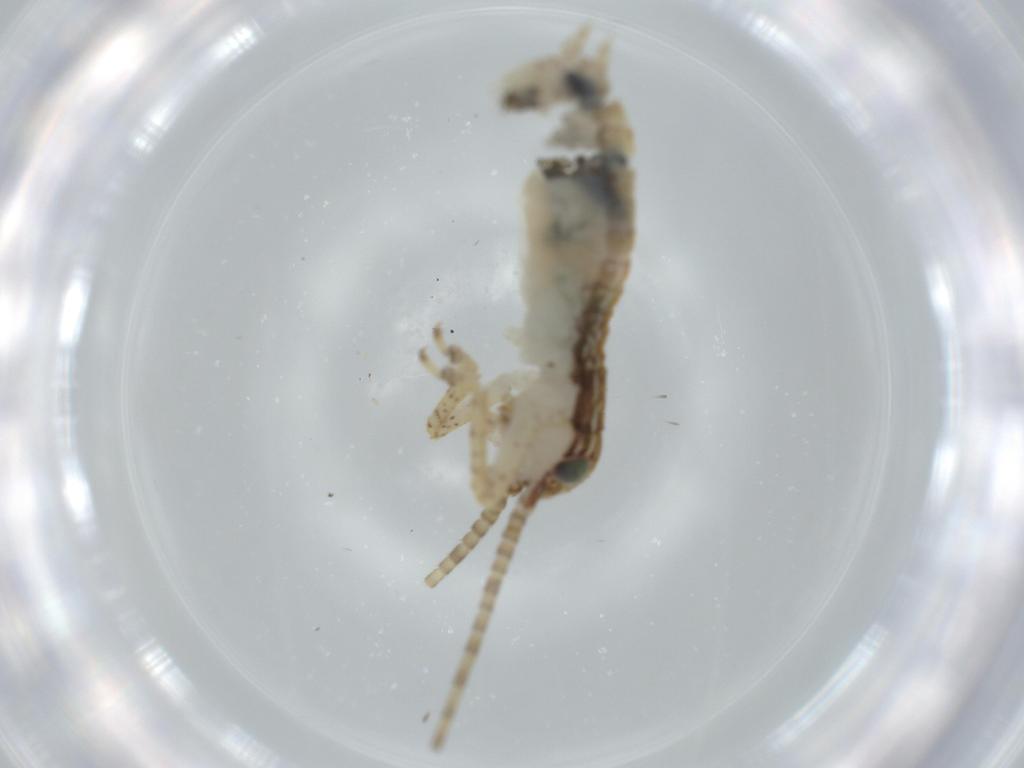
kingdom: Animalia
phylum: Arthropoda
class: Insecta
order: Orthoptera
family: Gryllidae
